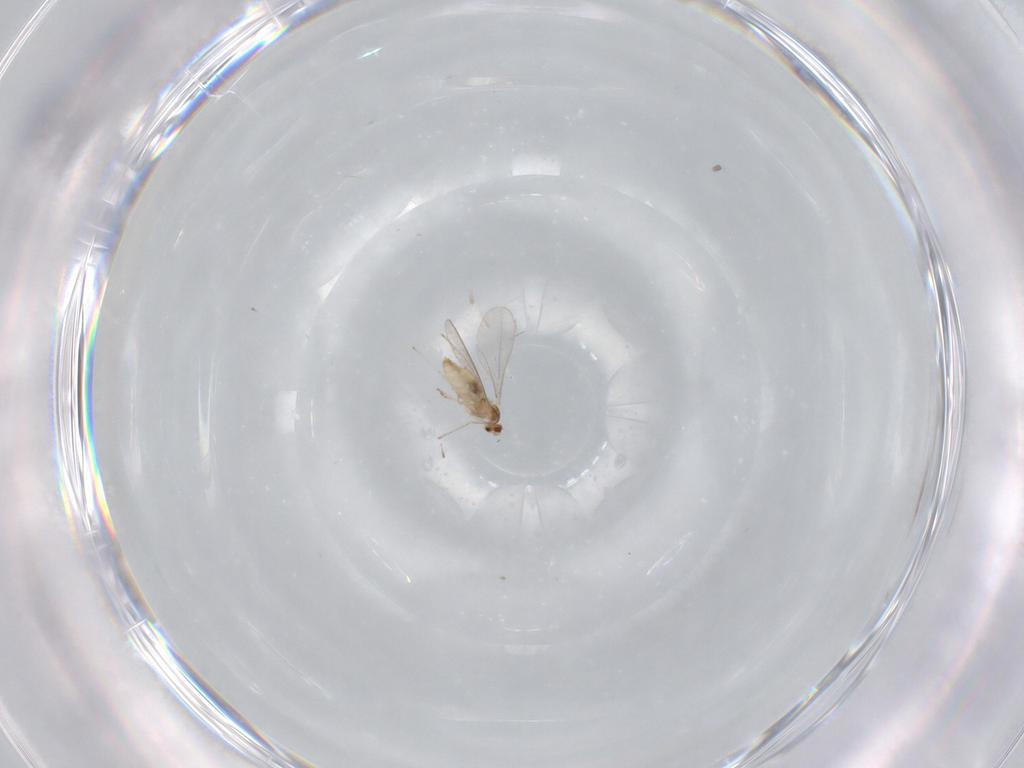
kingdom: Animalia
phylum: Arthropoda
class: Insecta
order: Diptera
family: Cecidomyiidae
